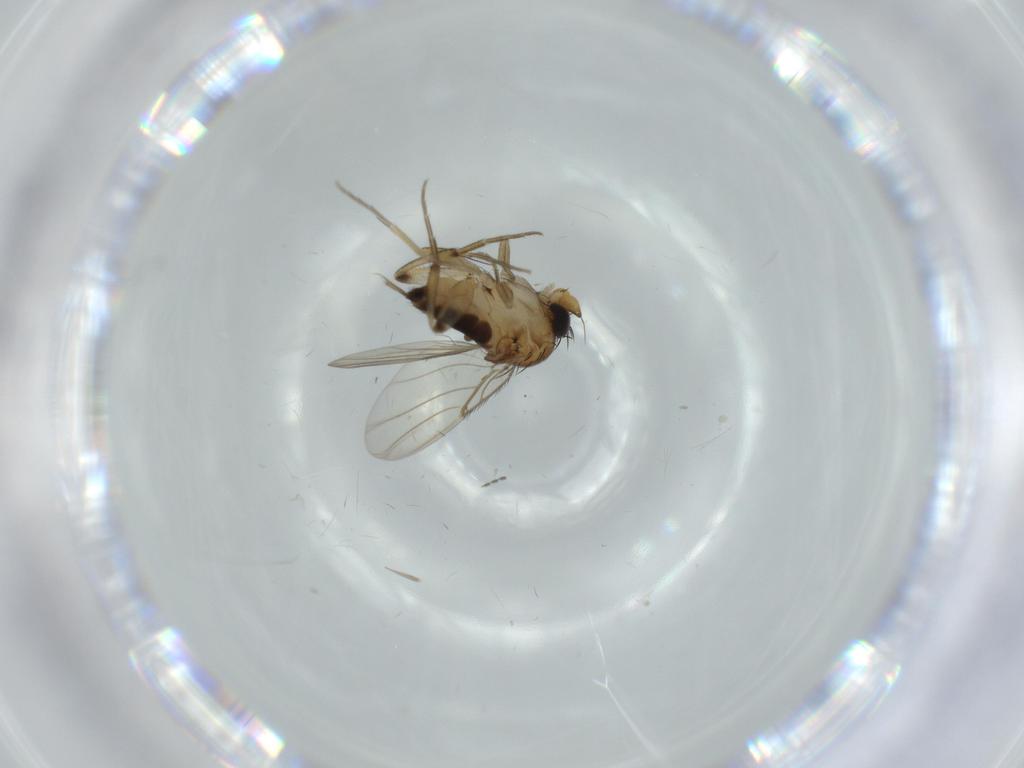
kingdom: Animalia
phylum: Arthropoda
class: Insecta
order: Diptera
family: Phoridae
